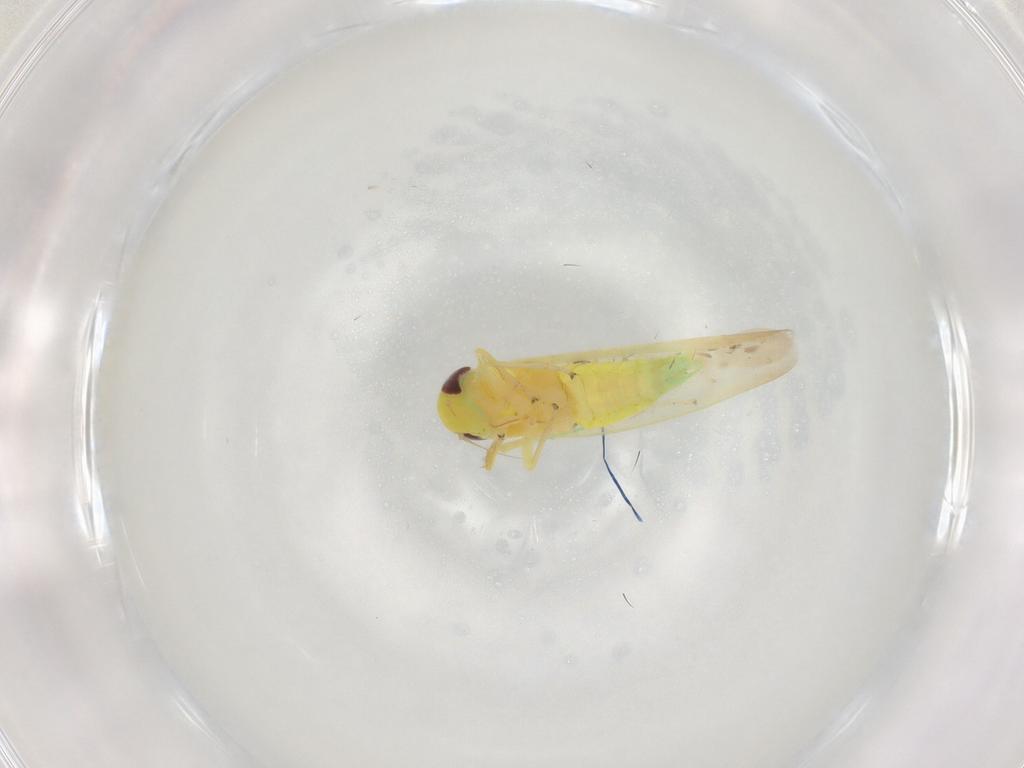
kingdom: Animalia
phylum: Arthropoda
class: Insecta
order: Hemiptera
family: Cicadellidae
